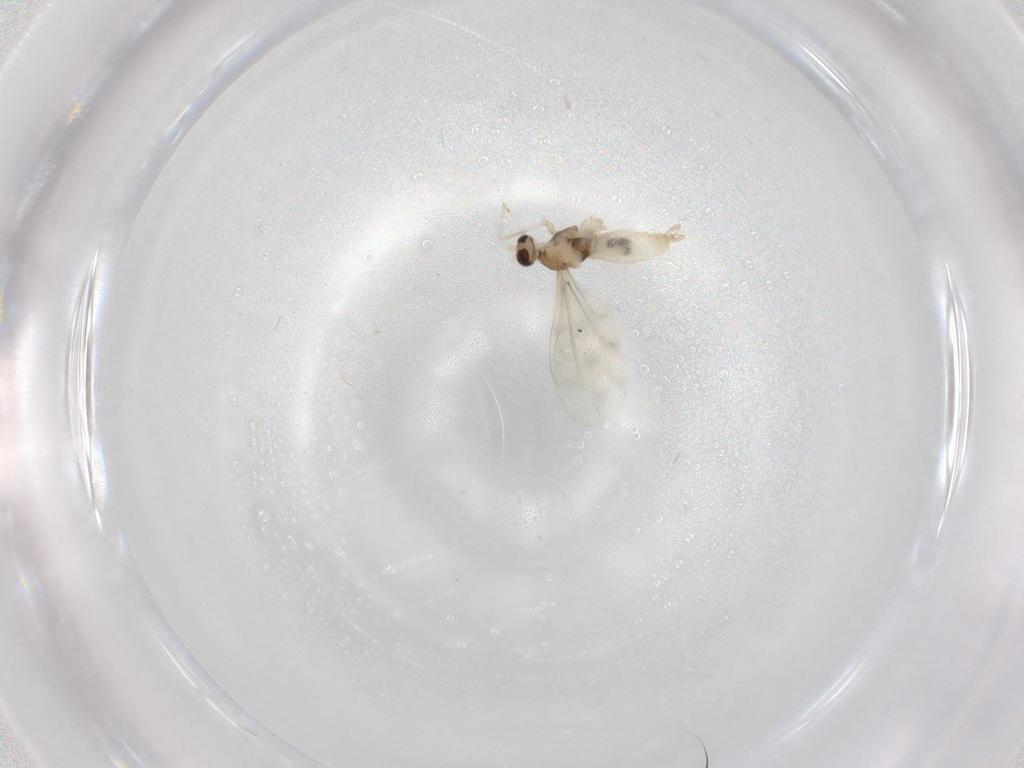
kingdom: Animalia
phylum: Arthropoda
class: Insecta
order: Diptera
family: Cecidomyiidae
